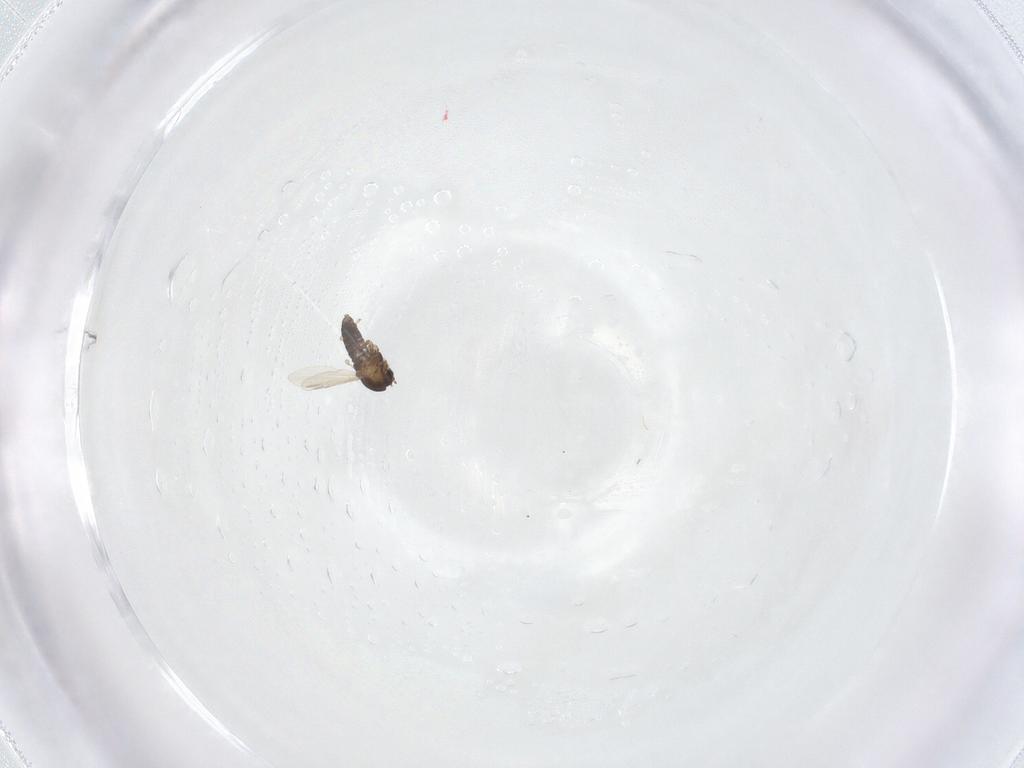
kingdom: Animalia
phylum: Arthropoda
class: Insecta
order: Diptera
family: Chironomidae
